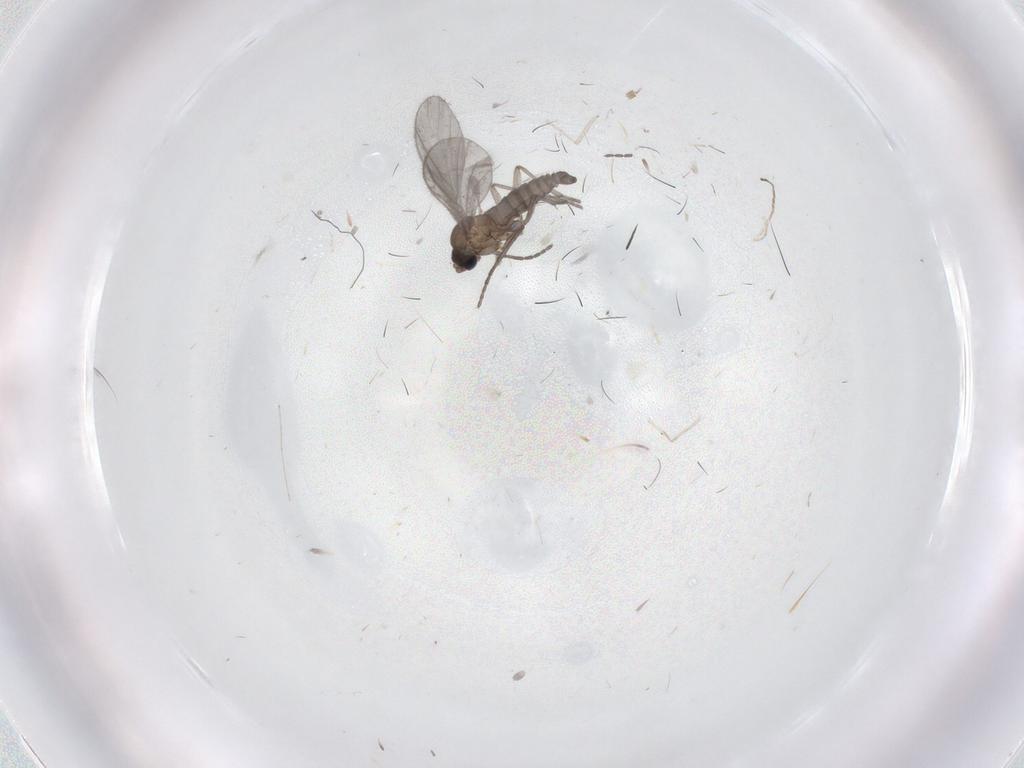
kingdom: Animalia
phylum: Arthropoda
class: Insecta
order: Diptera
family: Sciaridae
